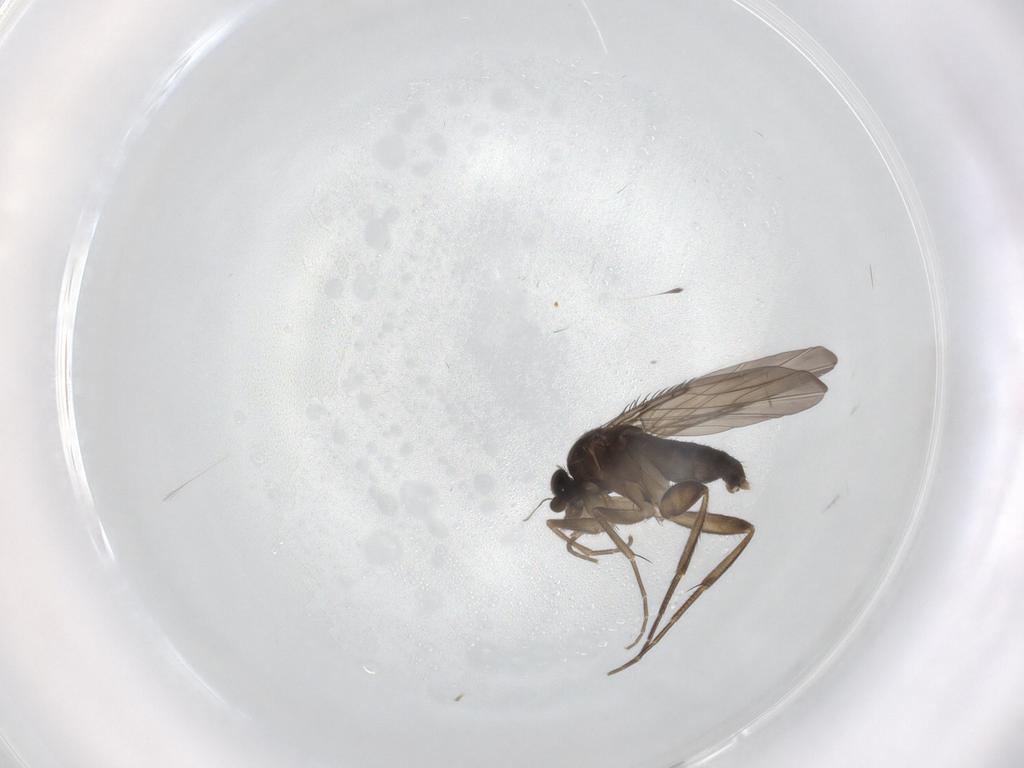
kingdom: Animalia
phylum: Arthropoda
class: Insecta
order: Diptera
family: Phoridae
